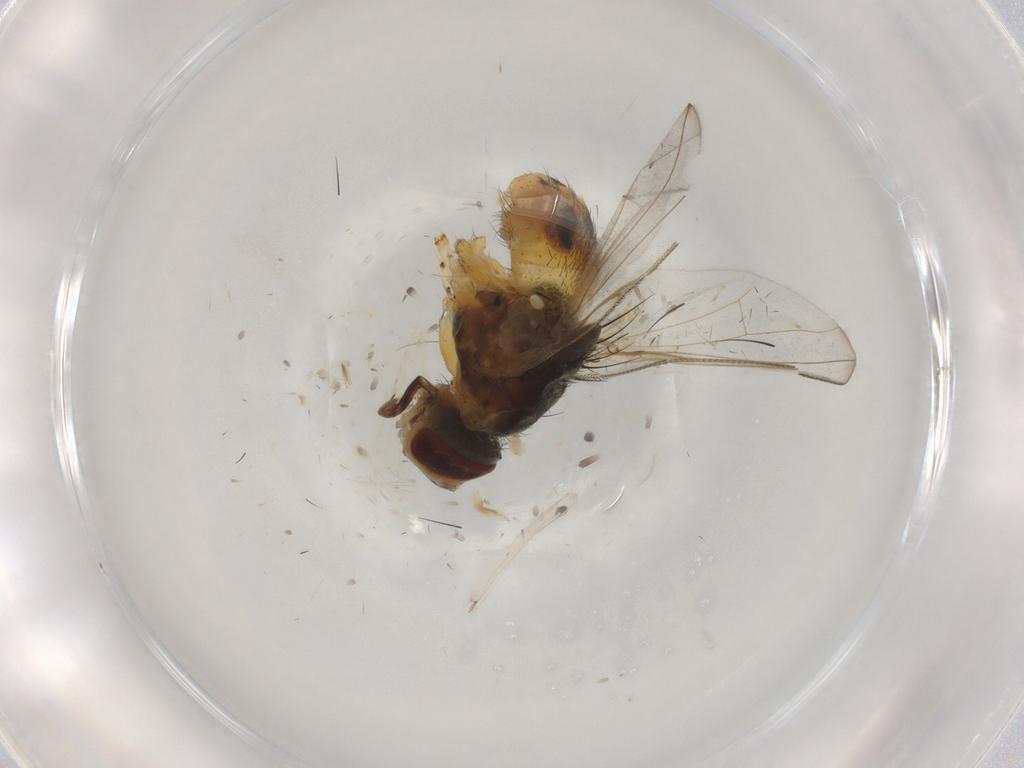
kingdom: Animalia
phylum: Arthropoda
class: Insecta
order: Diptera
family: Muscidae
